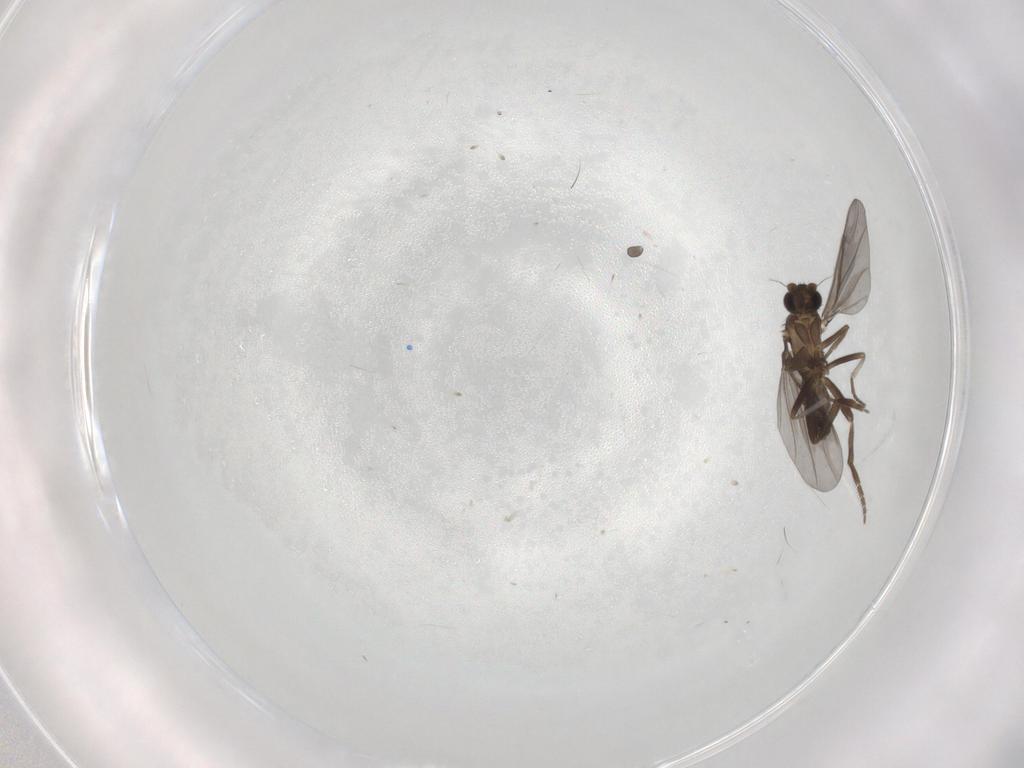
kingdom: Animalia
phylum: Arthropoda
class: Insecta
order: Diptera
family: Phoridae
